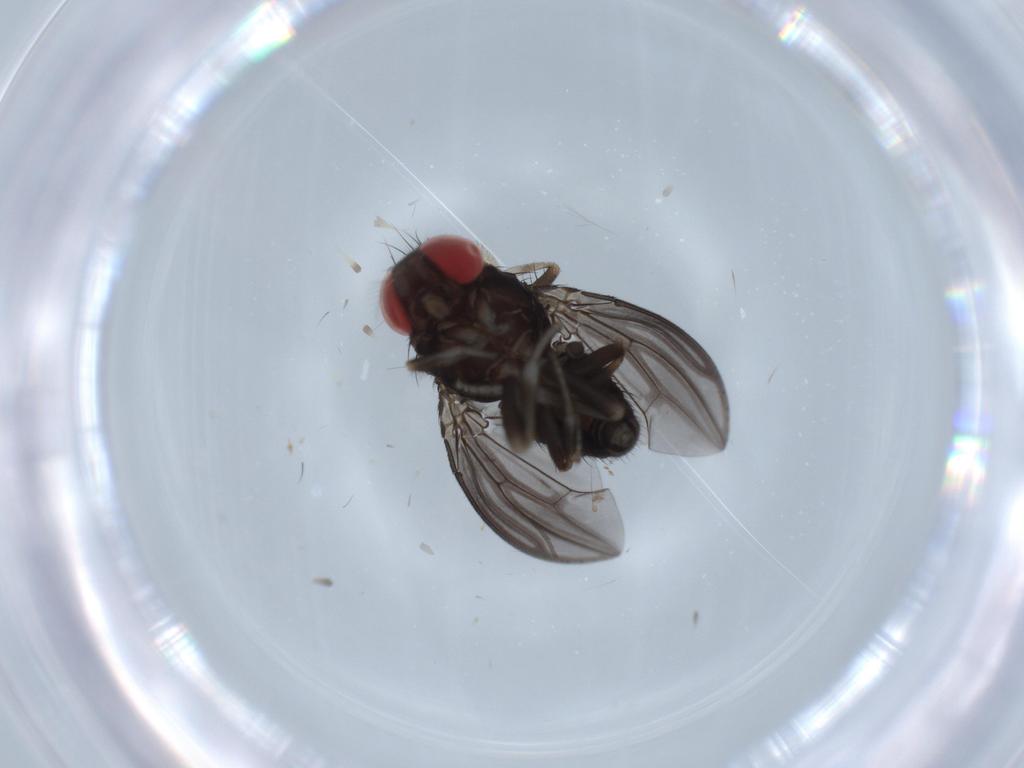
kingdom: Animalia
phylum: Arthropoda
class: Insecta
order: Diptera
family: Drosophilidae
